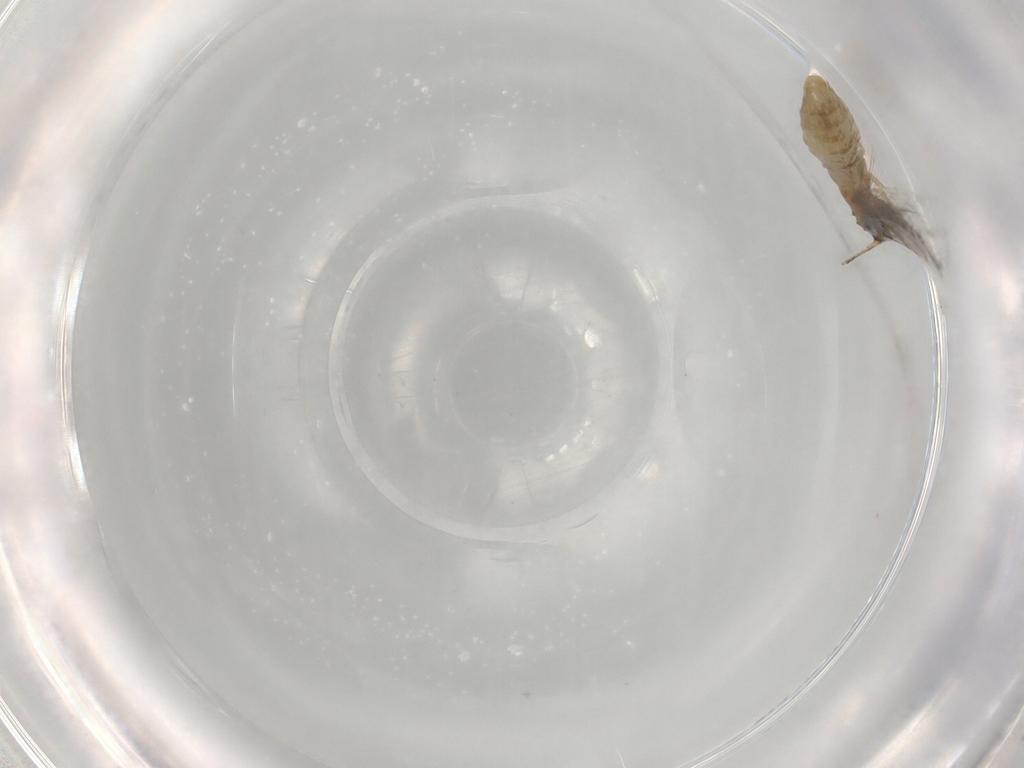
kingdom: Animalia
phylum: Arthropoda
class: Insecta
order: Lepidoptera
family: Nepticulidae
